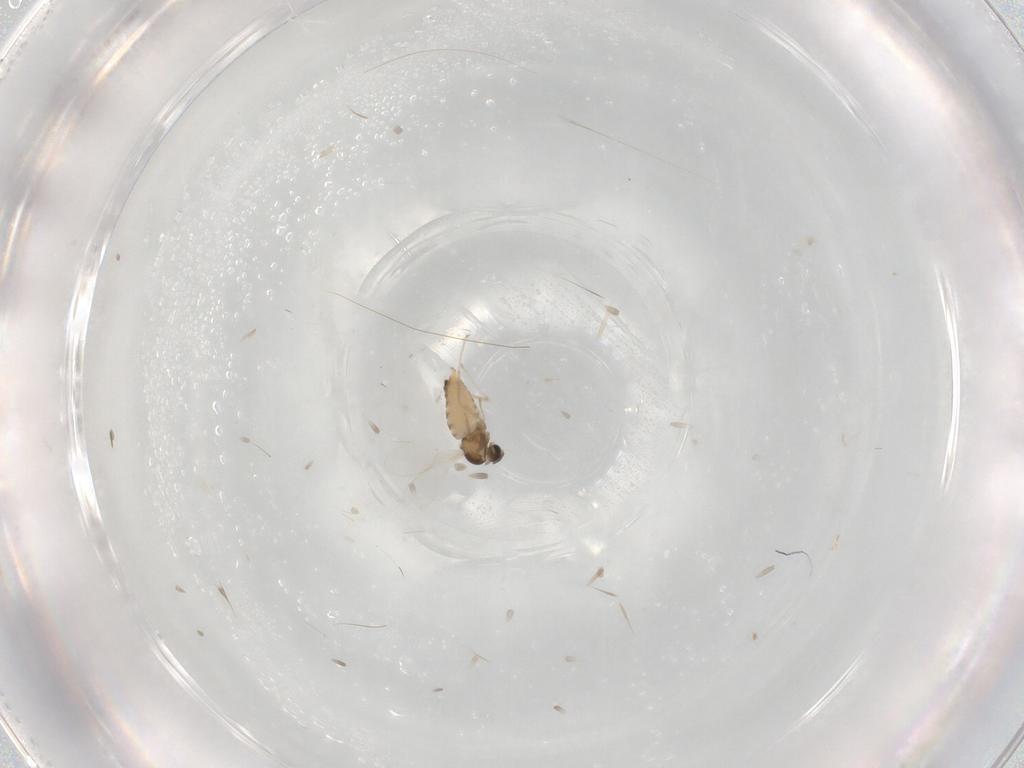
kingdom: Animalia
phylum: Arthropoda
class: Insecta
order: Diptera
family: Cecidomyiidae
